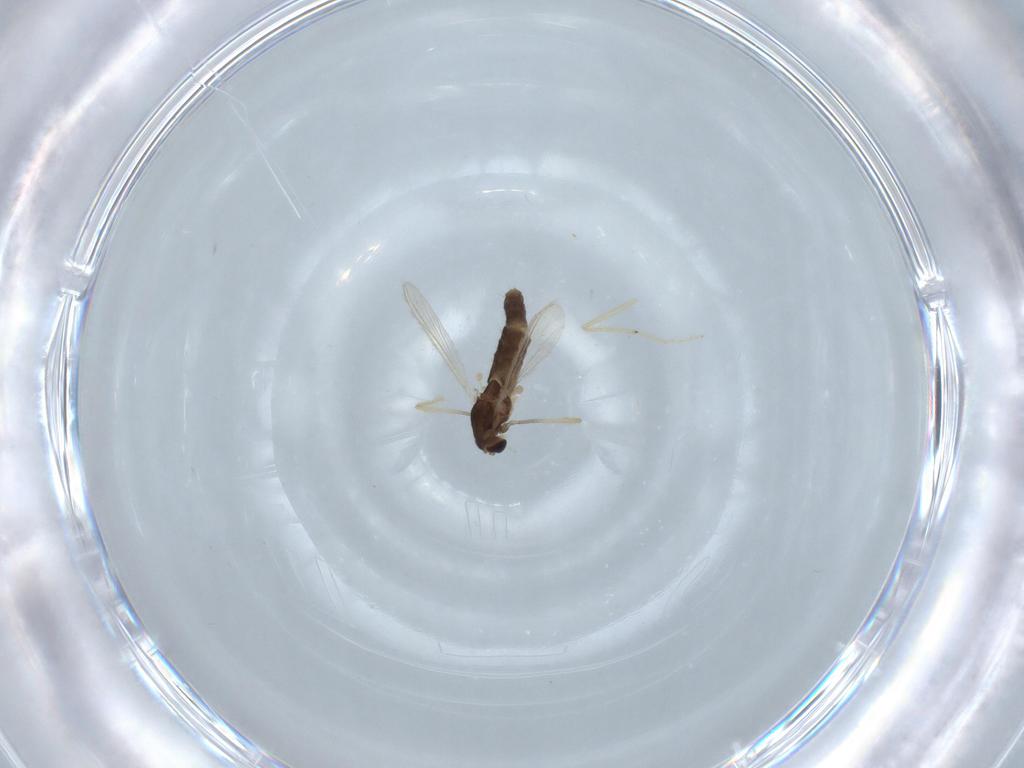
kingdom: Animalia
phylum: Arthropoda
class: Insecta
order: Diptera
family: Chironomidae
